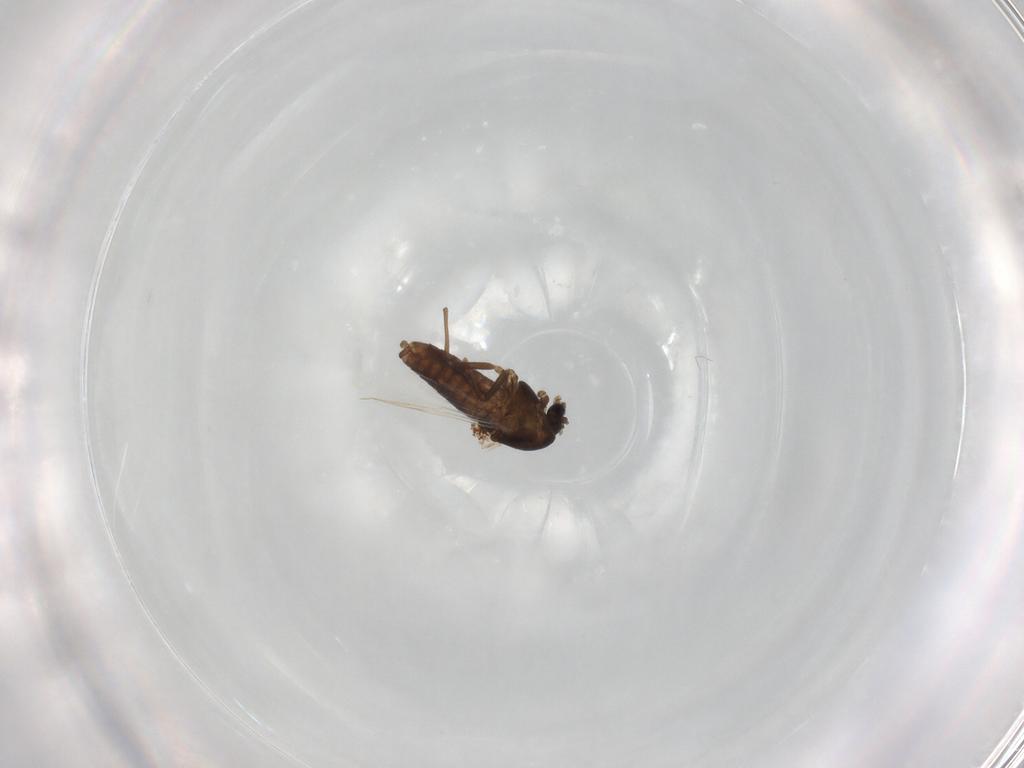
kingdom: Animalia
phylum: Arthropoda
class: Insecta
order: Diptera
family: Chironomidae
